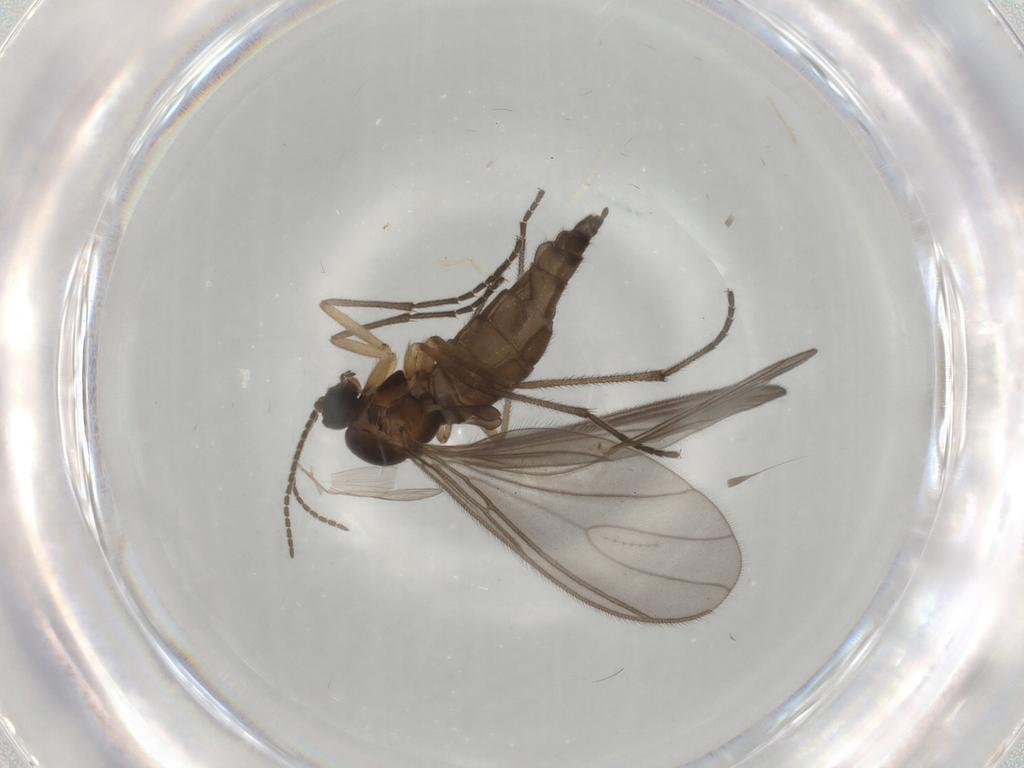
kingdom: Animalia
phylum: Arthropoda
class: Insecta
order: Diptera
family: Sciaridae
